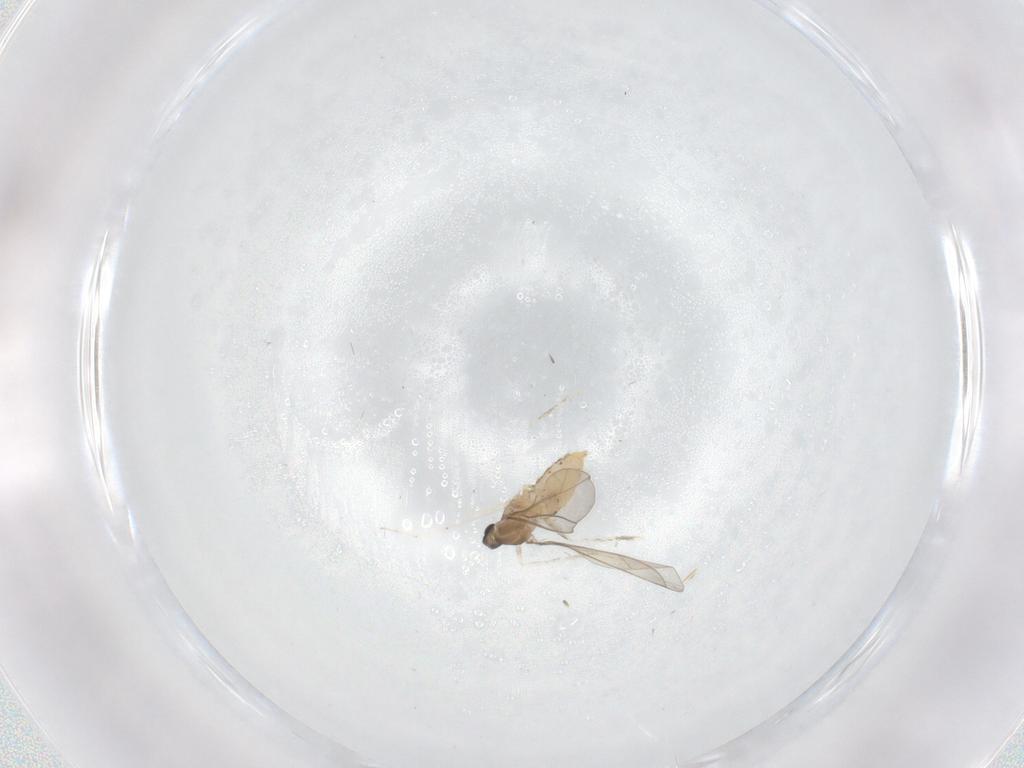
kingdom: Animalia
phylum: Arthropoda
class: Insecta
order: Diptera
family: Cecidomyiidae
